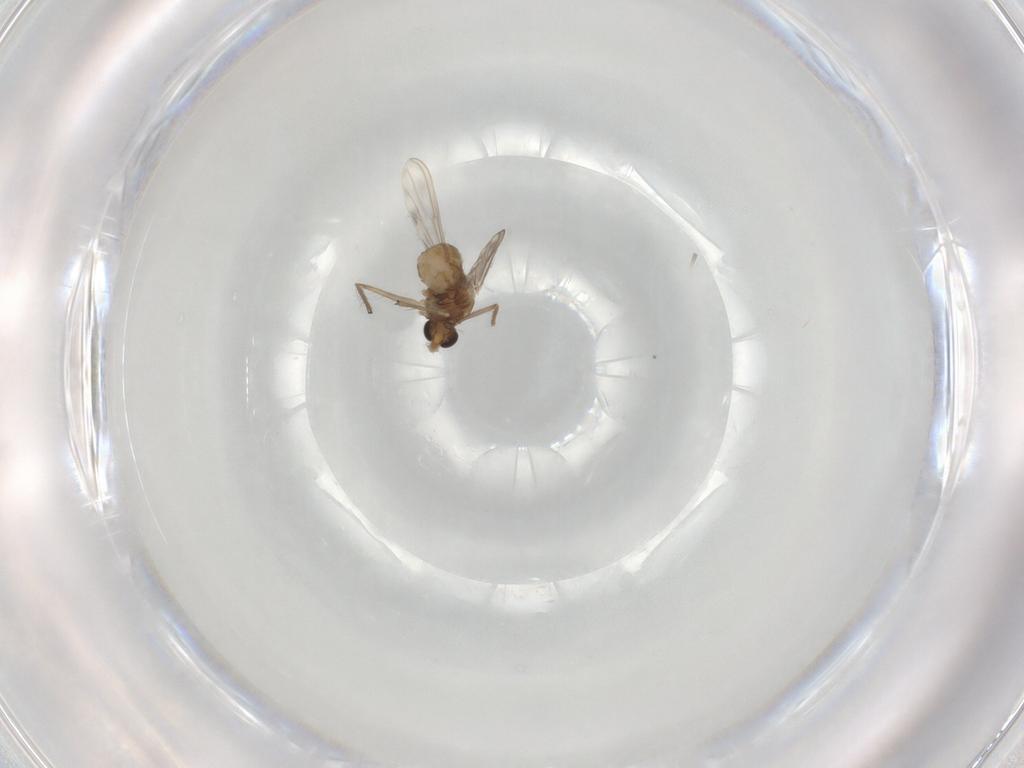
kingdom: Animalia
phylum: Arthropoda
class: Insecta
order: Diptera
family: Chironomidae
